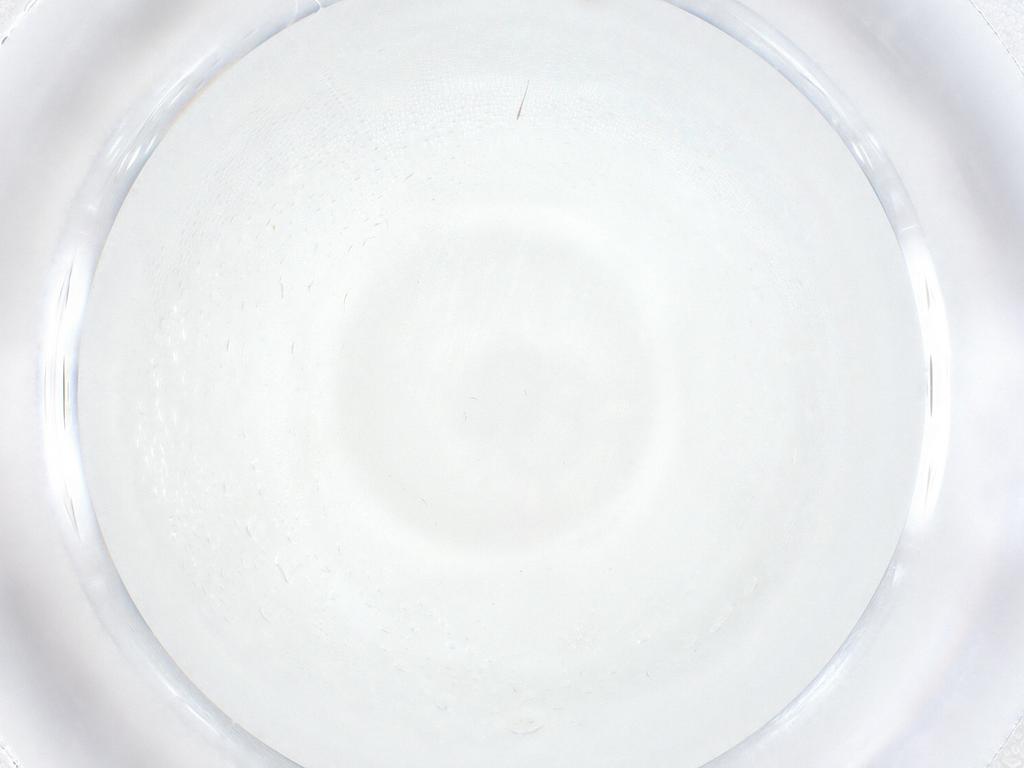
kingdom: Animalia
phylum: Arthropoda
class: Insecta
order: Diptera
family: Cecidomyiidae
